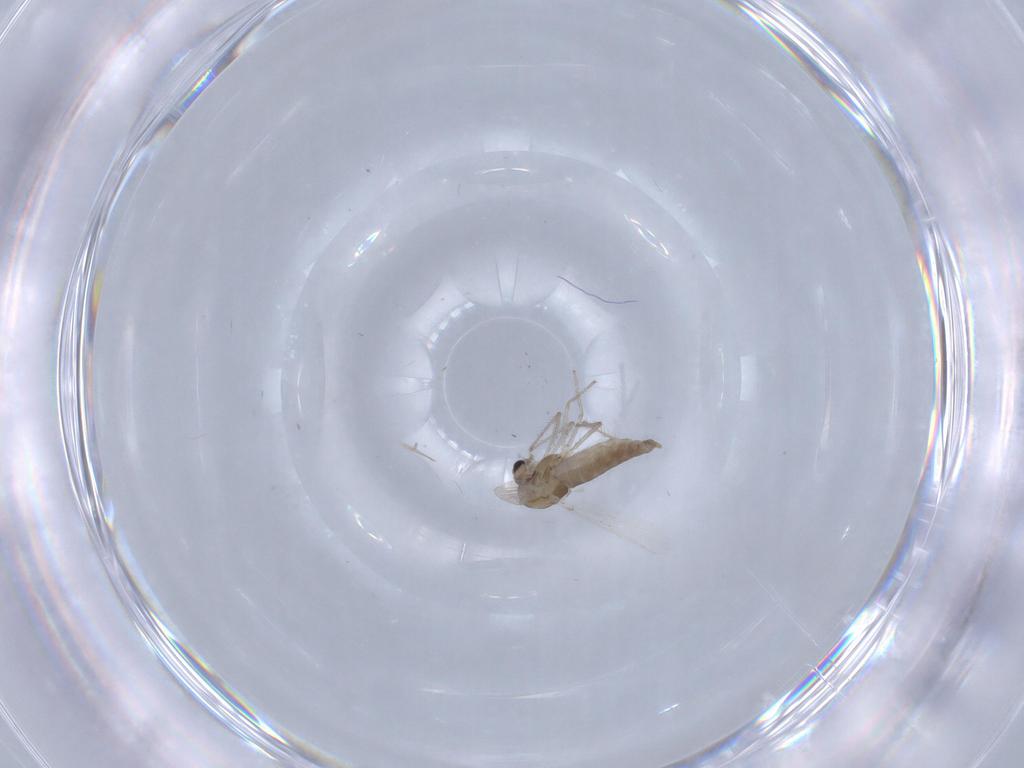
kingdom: Animalia
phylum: Arthropoda
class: Insecta
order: Diptera
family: Chironomidae
